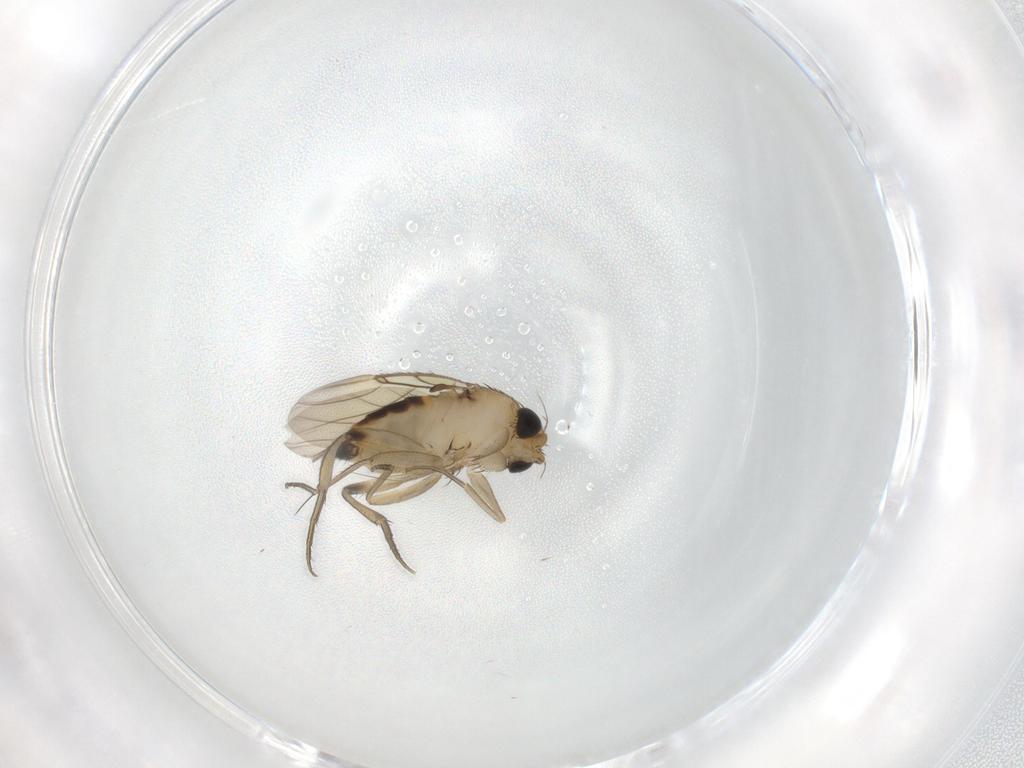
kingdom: Animalia
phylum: Arthropoda
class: Insecta
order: Diptera
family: Phoridae
